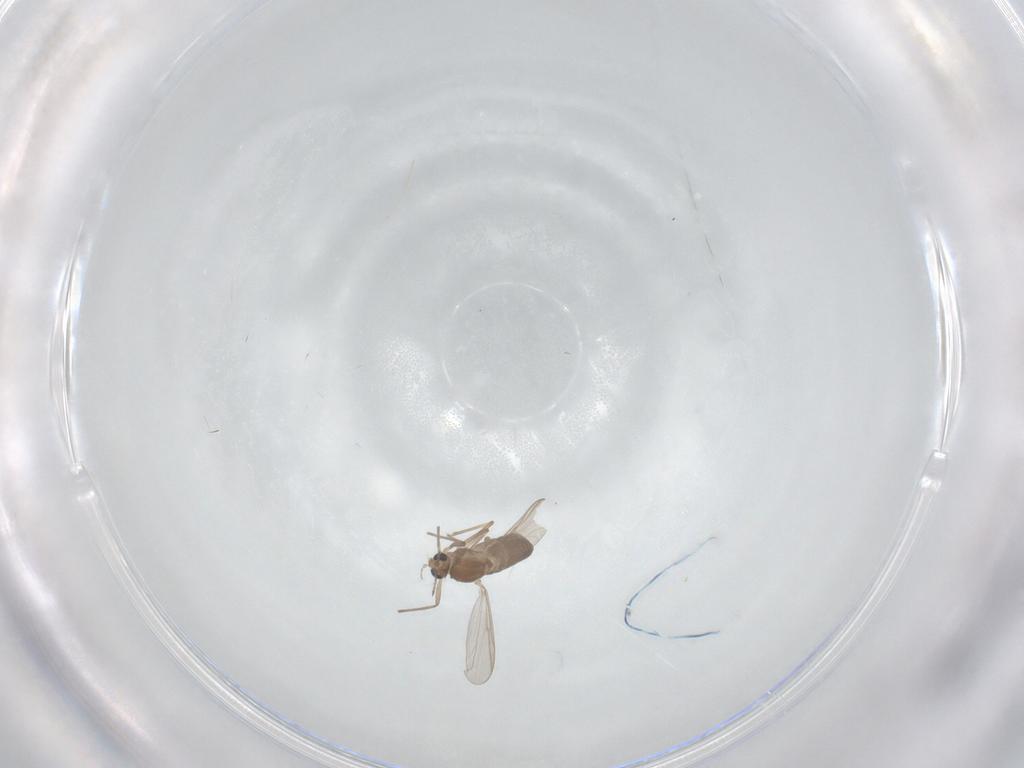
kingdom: Animalia
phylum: Arthropoda
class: Insecta
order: Diptera
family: Chironomidae
